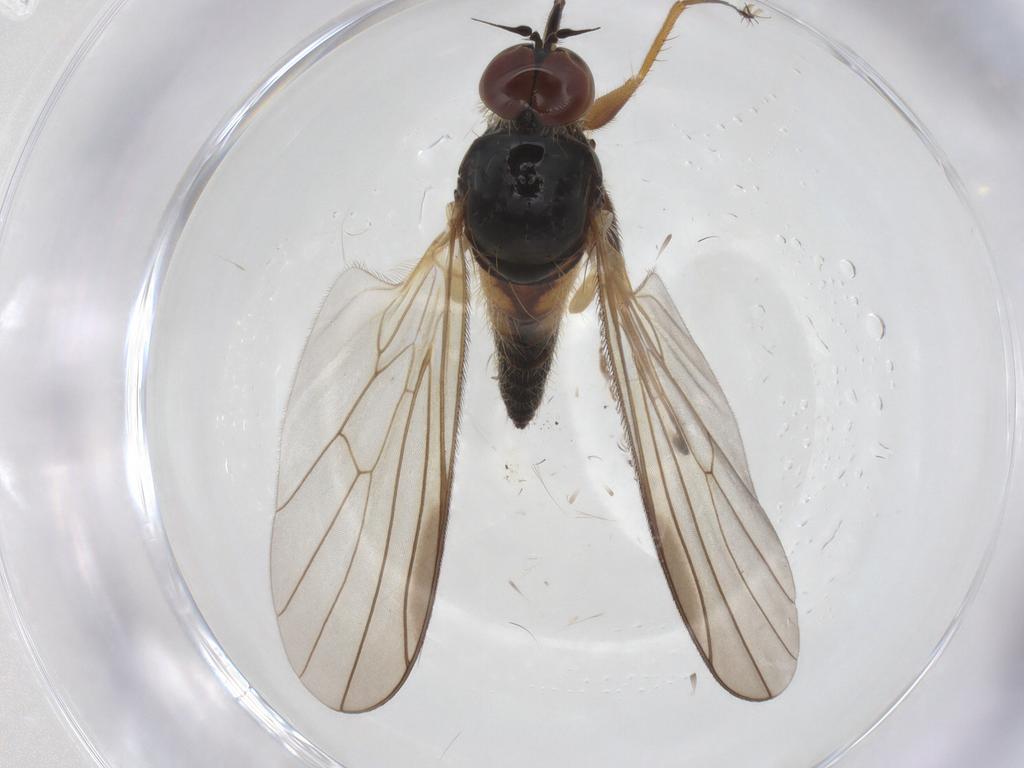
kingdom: Animalia
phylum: Arthropoda
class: Insecta
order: Diptera
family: Empididae
